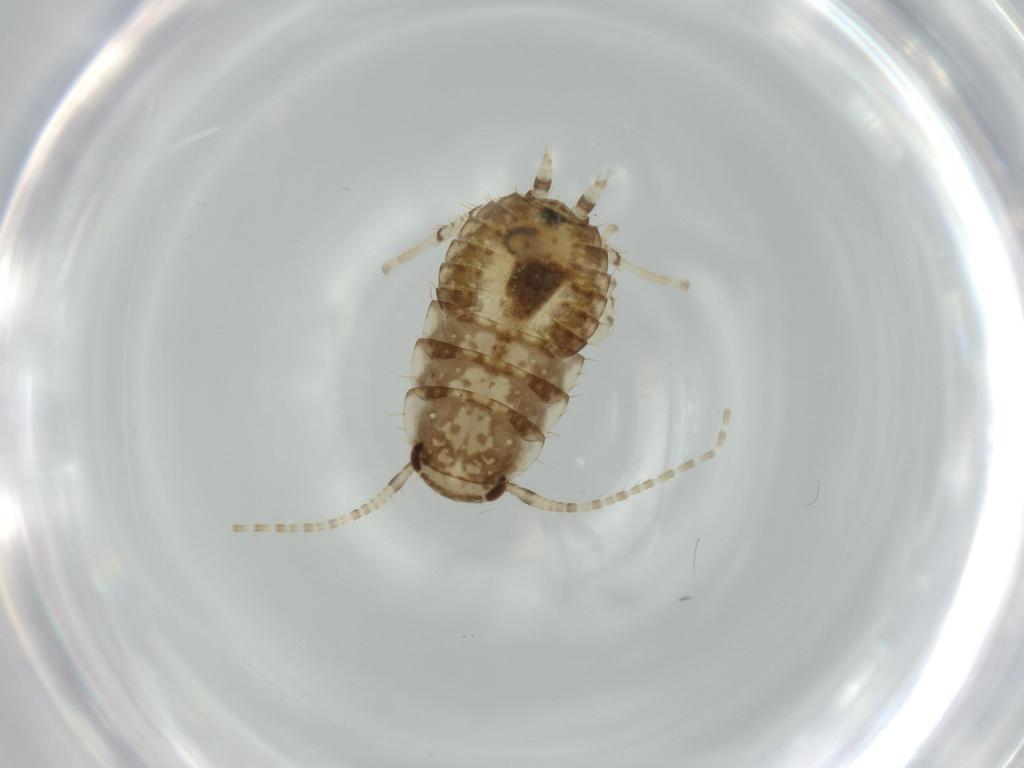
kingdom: Animalia
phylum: Arthropoda
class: Insecta
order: Blattodea
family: Ectobiidae
